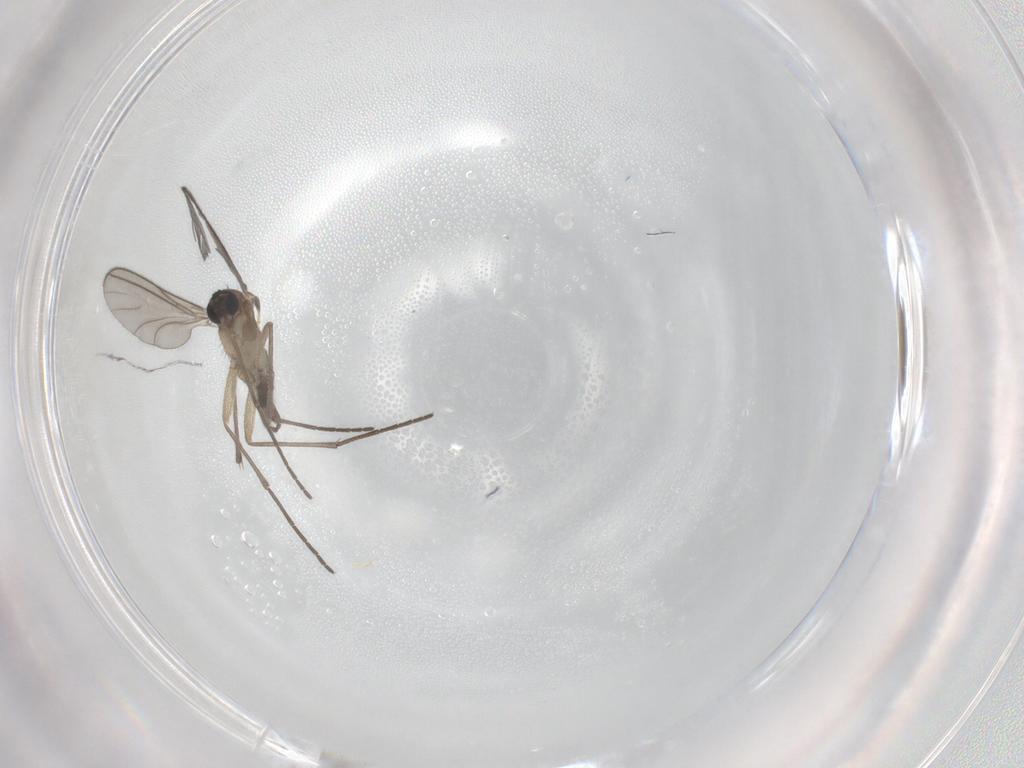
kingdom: Animalia
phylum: Arthropoda
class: Insecta
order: Diptera
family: Sciaridae
